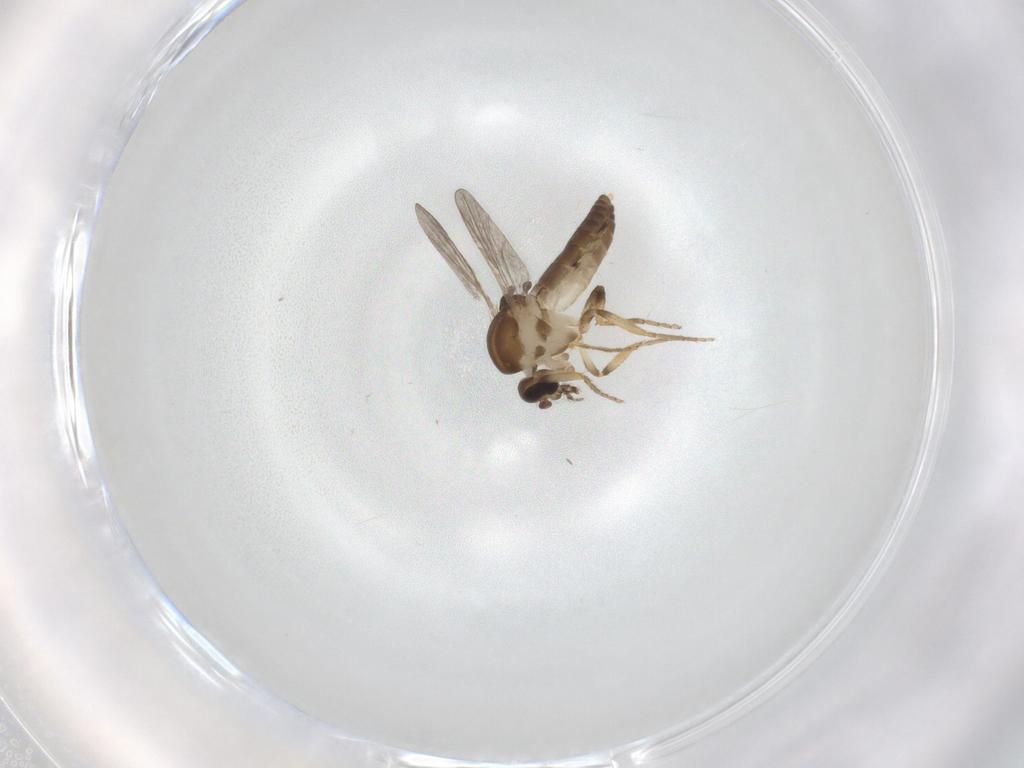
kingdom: Animalia
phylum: Arthropoda
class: Insecta
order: Diptera
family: Ceratopogonidae
